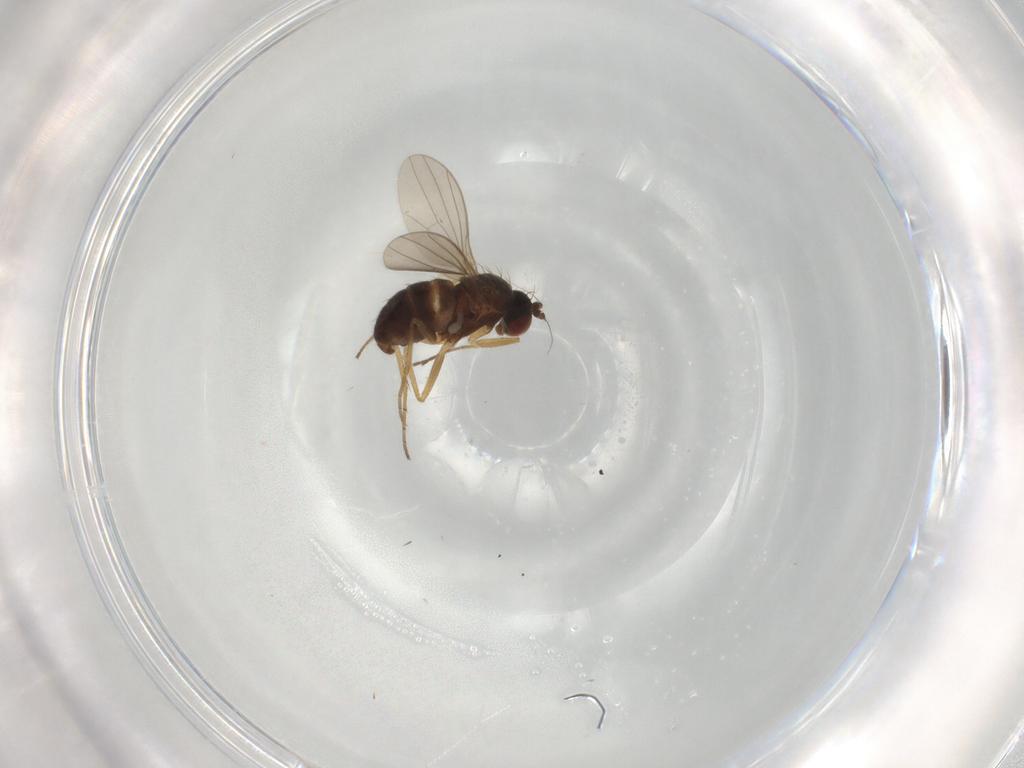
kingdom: Animalia
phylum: Arthropoda
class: Insecta
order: Diptera
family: Dolichopodidae
